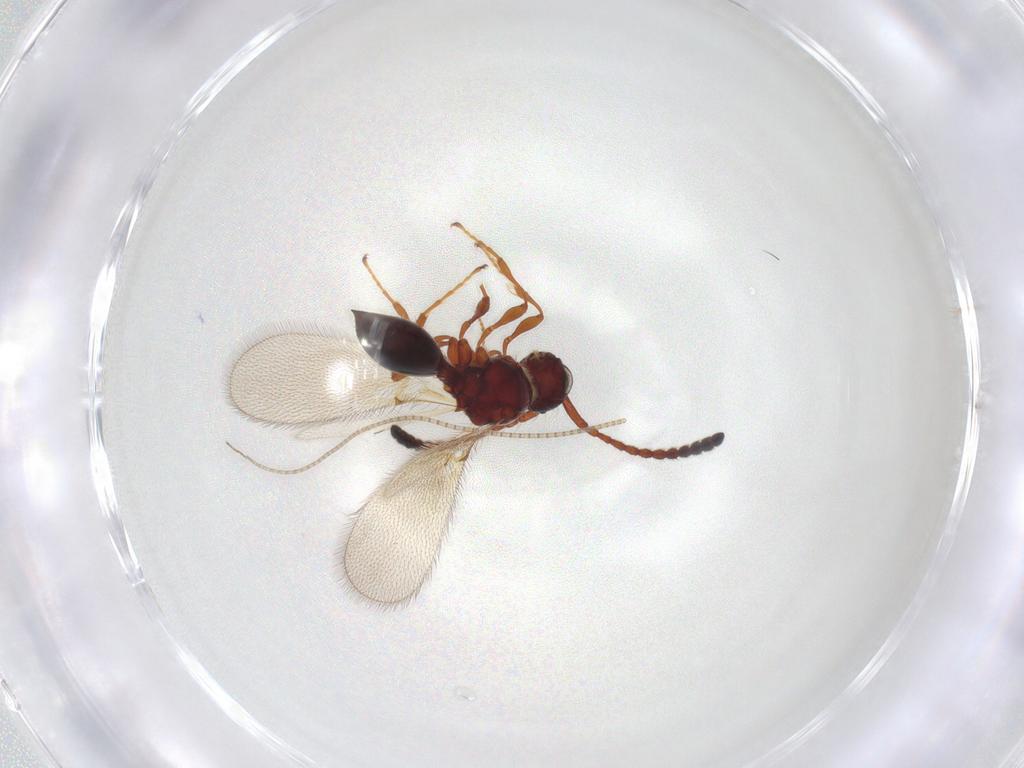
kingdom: Animalia
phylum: Arthropoda
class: Insecta
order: Hymenoptera
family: Diapriidae
